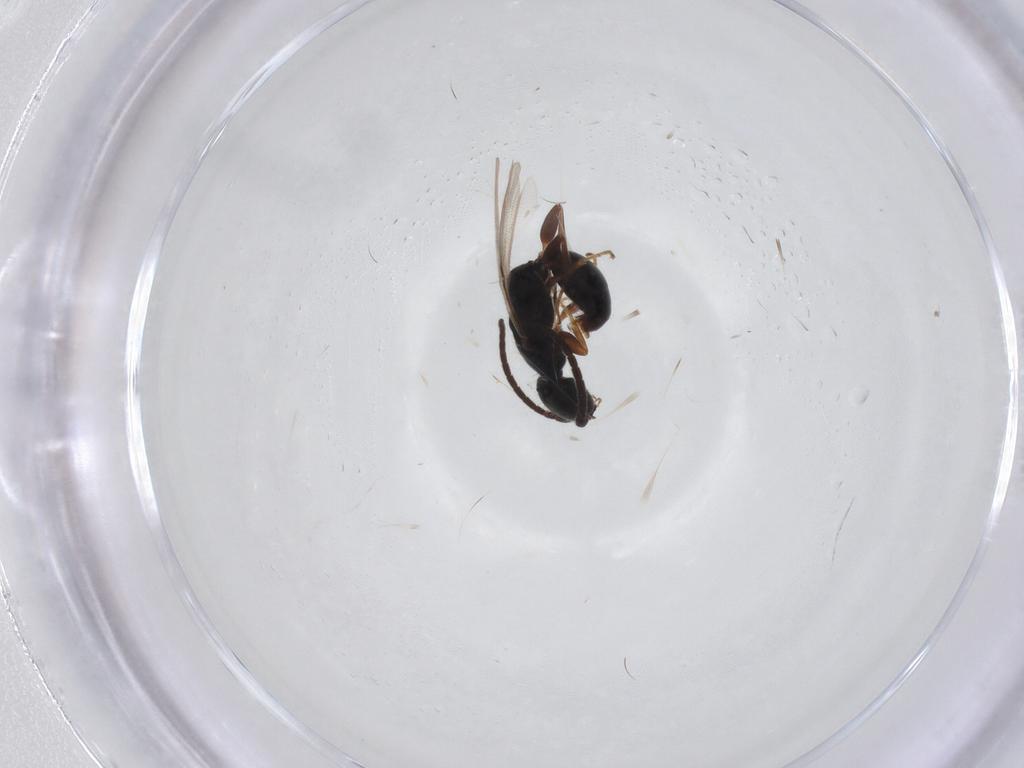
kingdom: Animalia
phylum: Arthropoda
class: Insecta
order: Hymenoptera
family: Bethylidae
